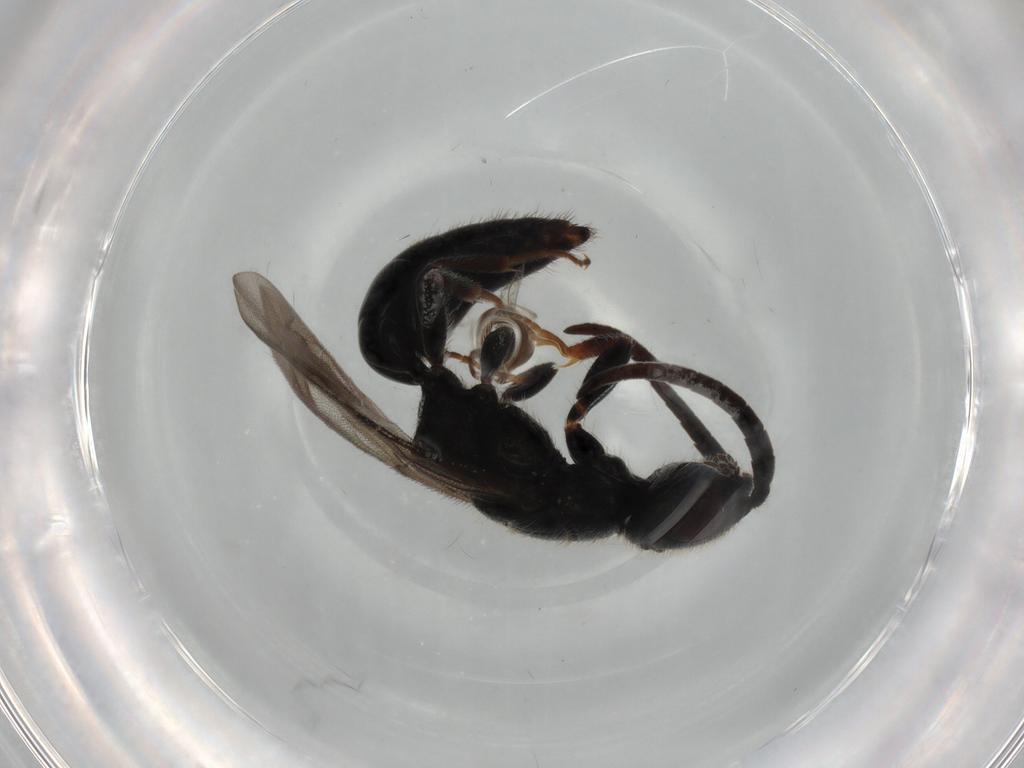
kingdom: Animalia
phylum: Arthropoda
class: Insecta
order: Hymenoptera
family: Bethylidae
